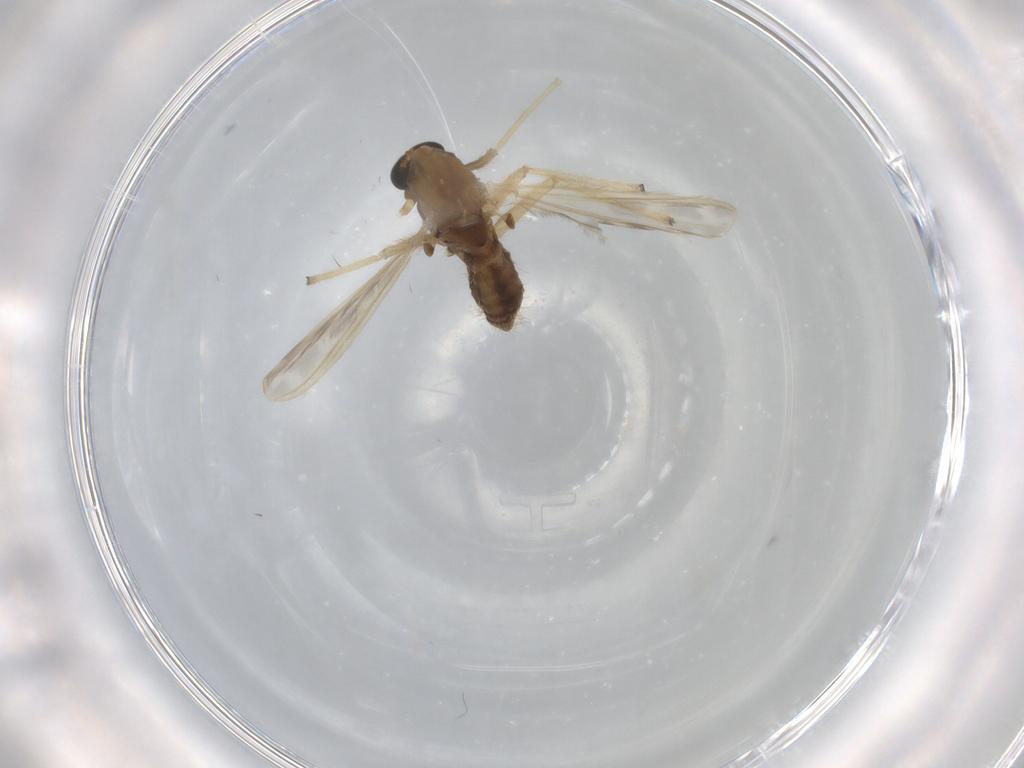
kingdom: Animalia
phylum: Arthropoda
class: Insecta
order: Diptera
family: Chironomidae
